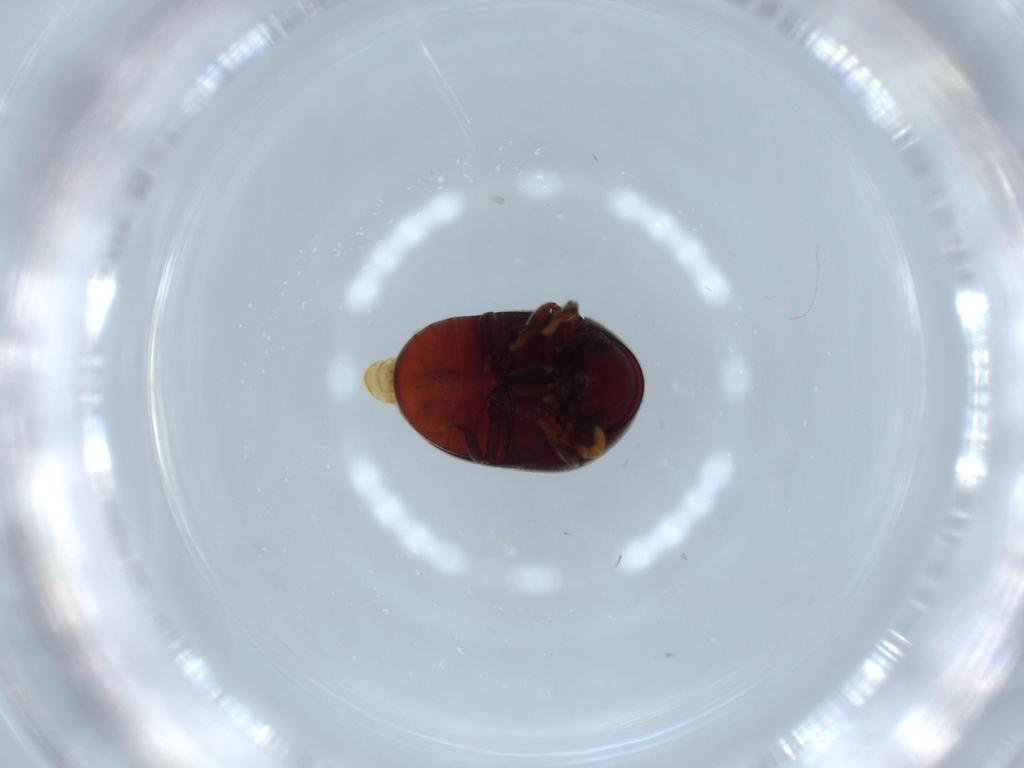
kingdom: Animalia
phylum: Arthropoda
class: Insecta
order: Coleoptera
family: Ptinidae
